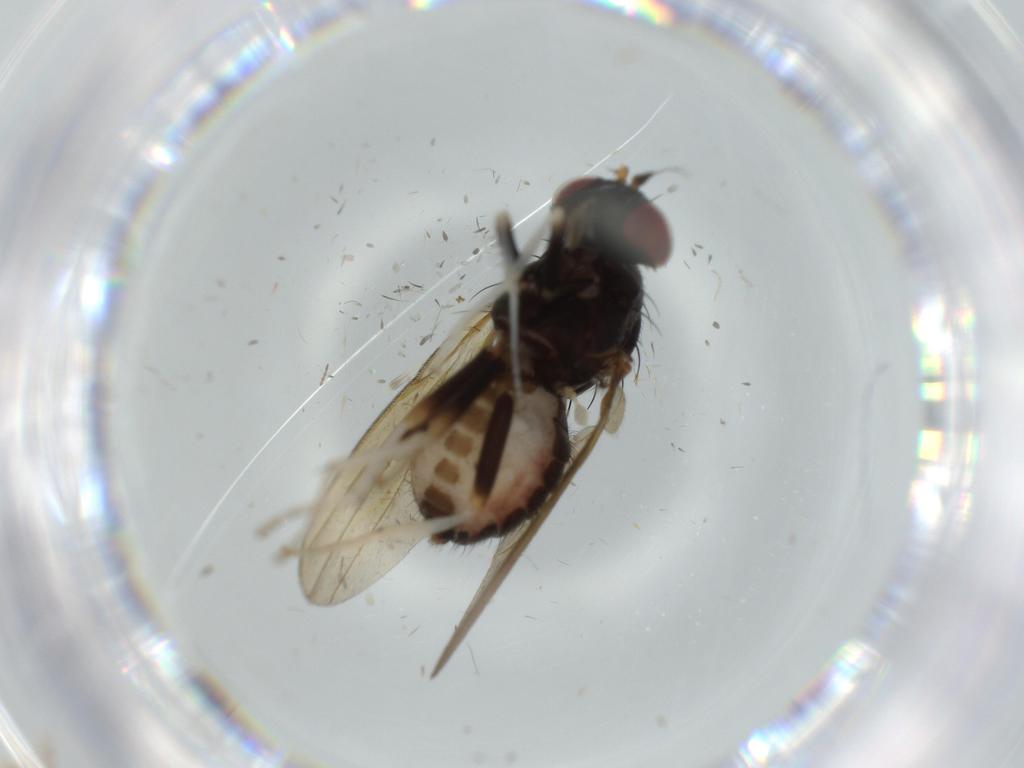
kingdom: Animalia
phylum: Arthropoda
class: Insecta
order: Diptera
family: Lauxaniidae
